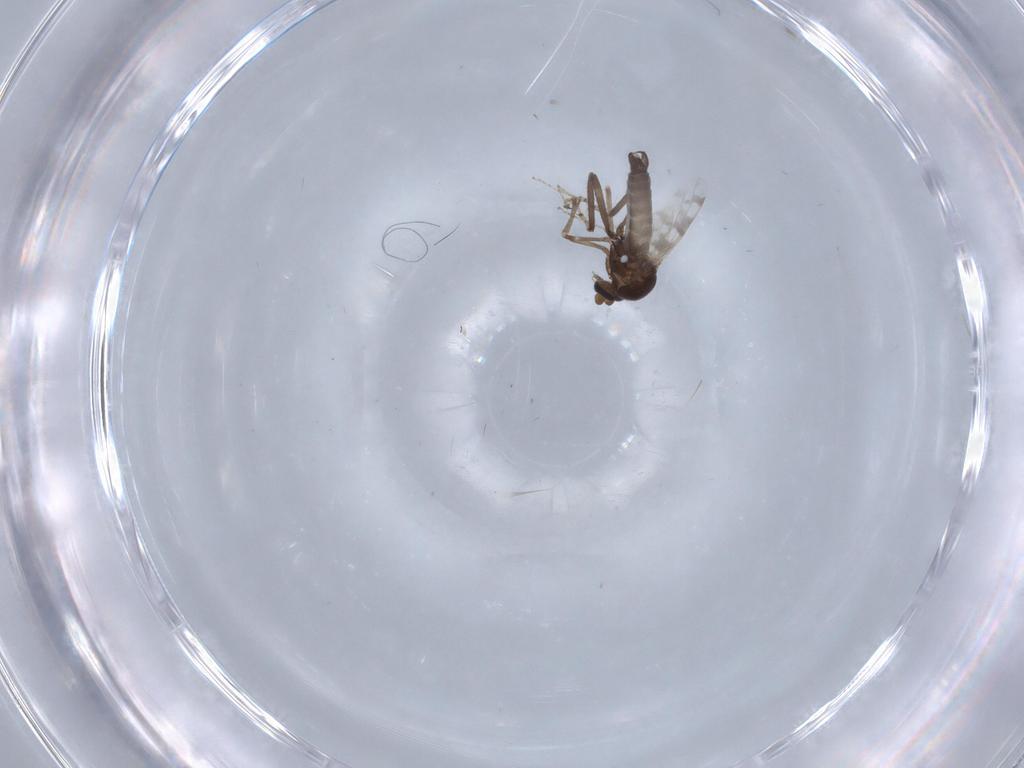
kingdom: Animalia
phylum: Arthropoda
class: Insecta
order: Diptera
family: Ceratopogonidae
